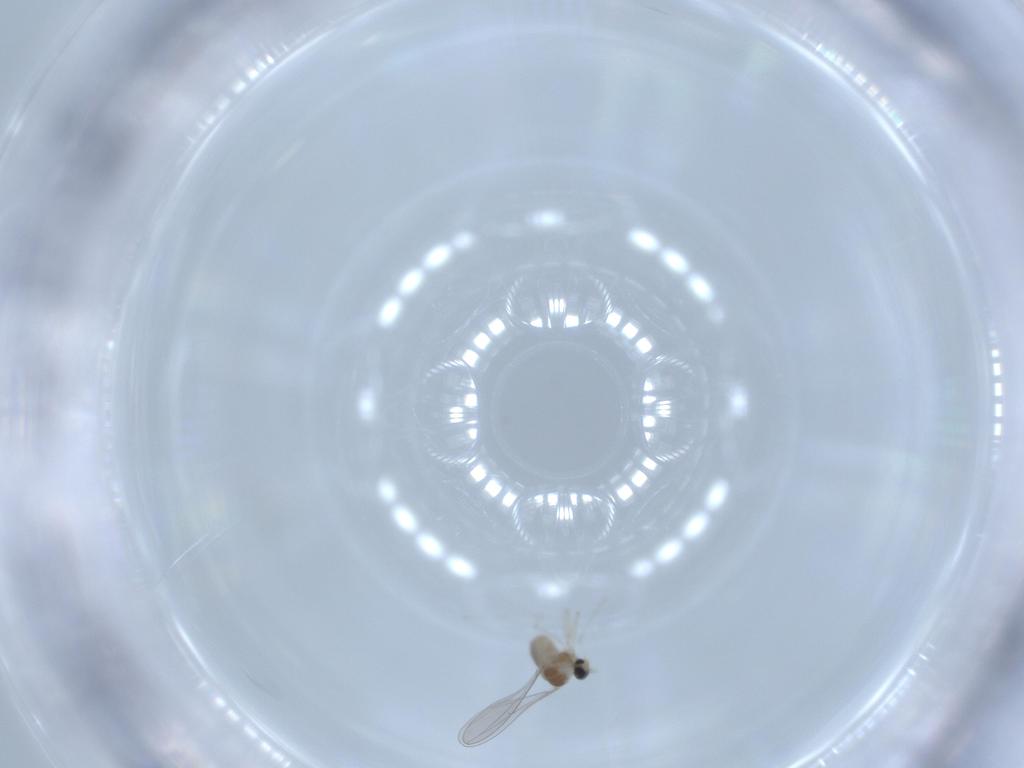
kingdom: Animalia
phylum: Arthropoda
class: Insecta
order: Diptera
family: Cecidomyiidae
